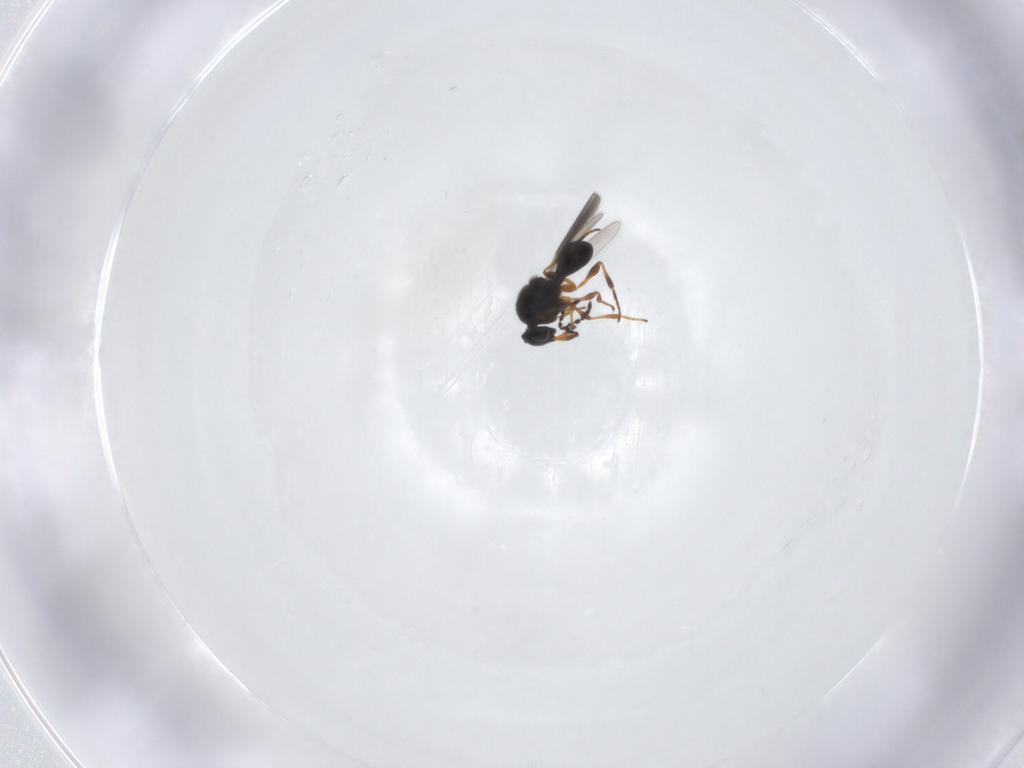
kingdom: Animalia
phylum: Arthropoda
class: Insecta
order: Hymenoptera
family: Platygastridae
